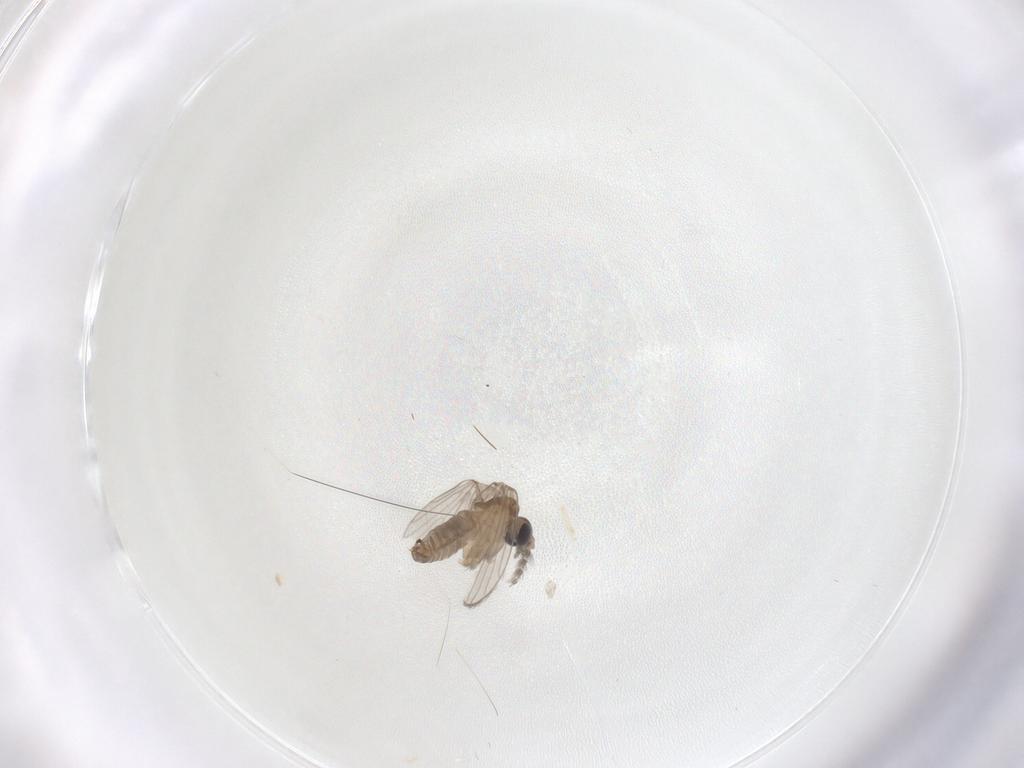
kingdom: Animalia
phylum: Arthropoda
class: Insecta
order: Diptera
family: Psychodidae
